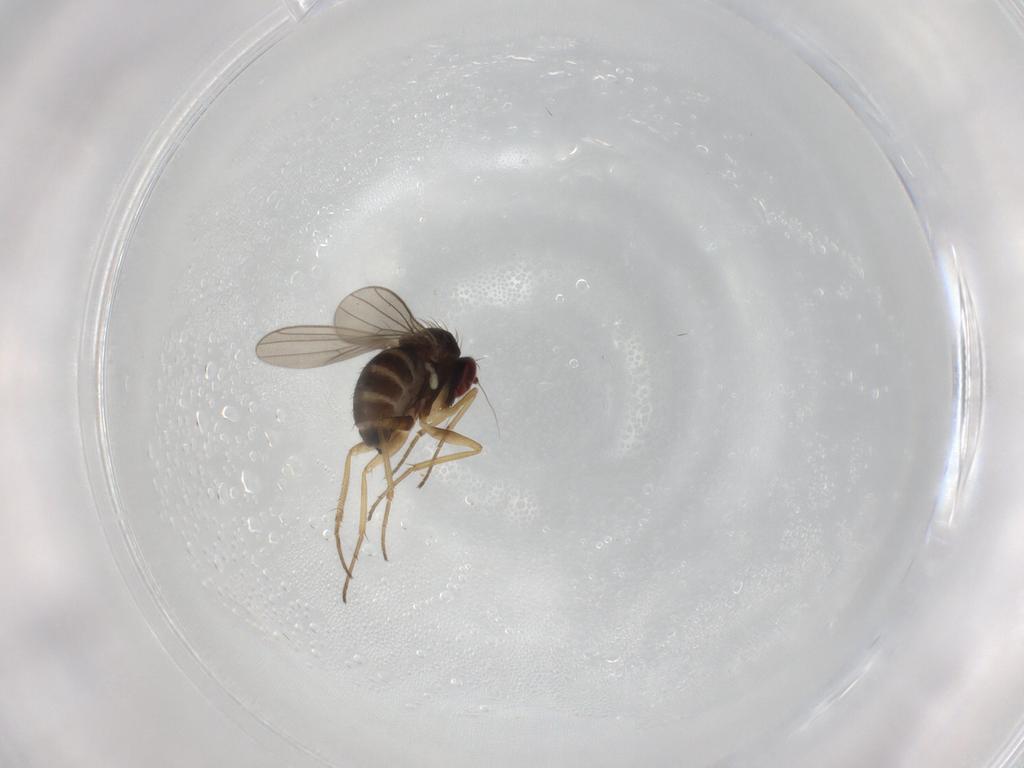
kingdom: Animalia
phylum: Arthropoda
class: Insecta
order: Diptera
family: Dolichopodidae
